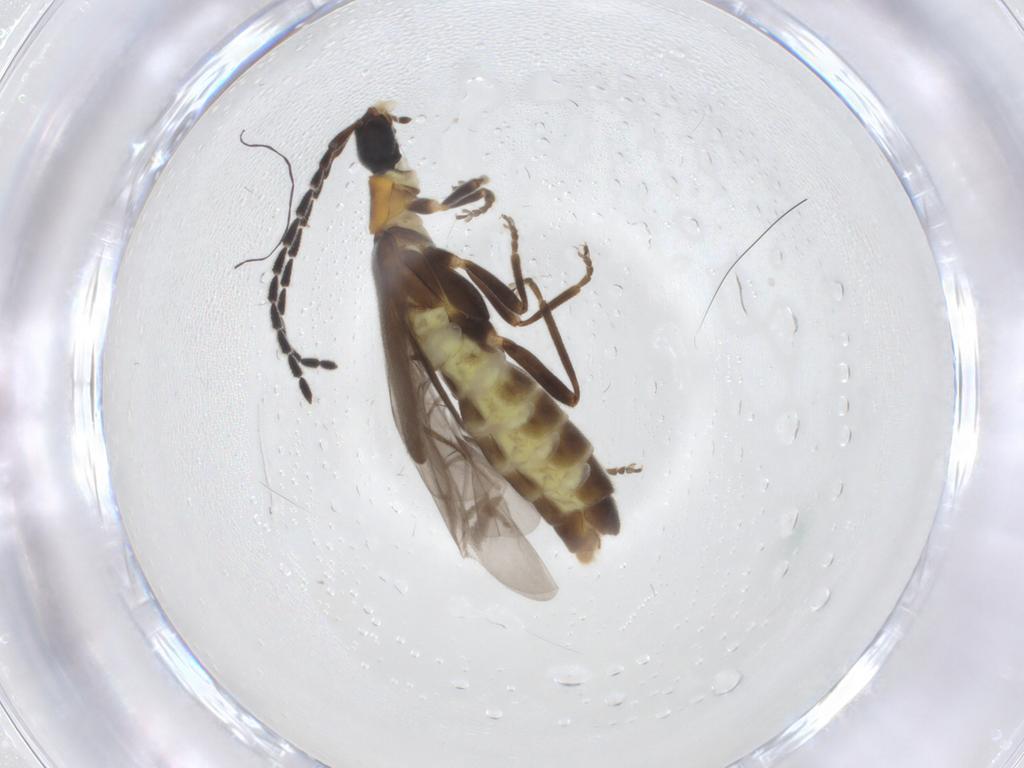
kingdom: Animalia
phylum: Arthropoda
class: Insecta
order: Coleoptera
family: Cantharidae
